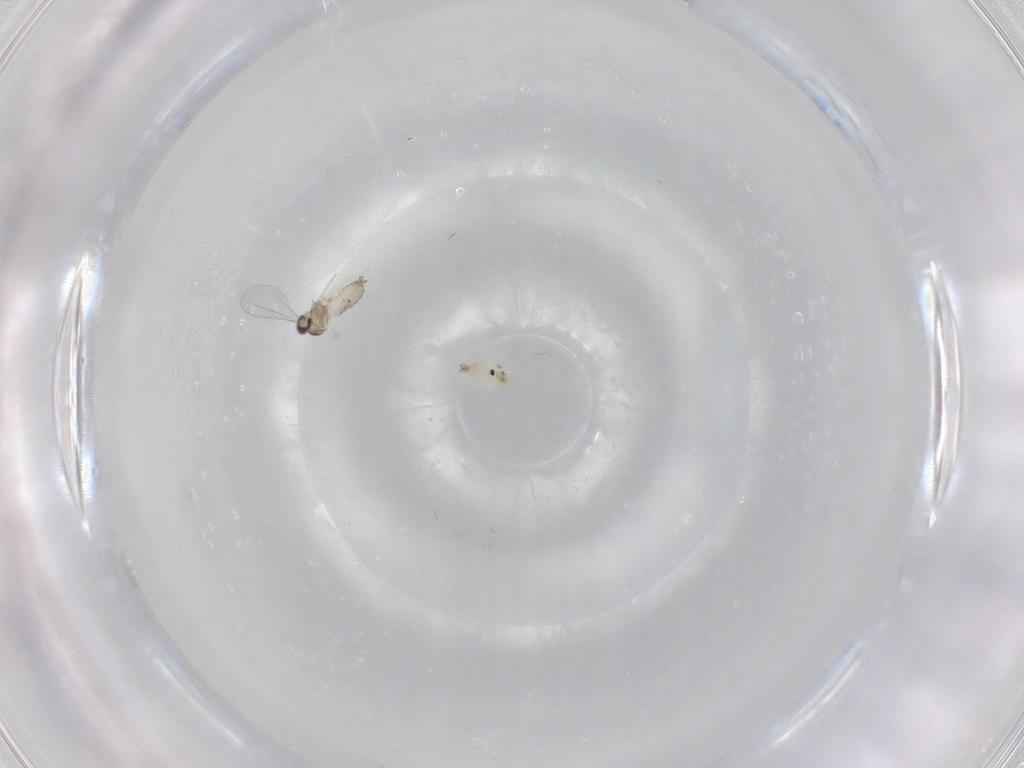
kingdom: Animalia
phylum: Arthropoda
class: Insecta
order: Diptera
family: Cecidomyiidae
